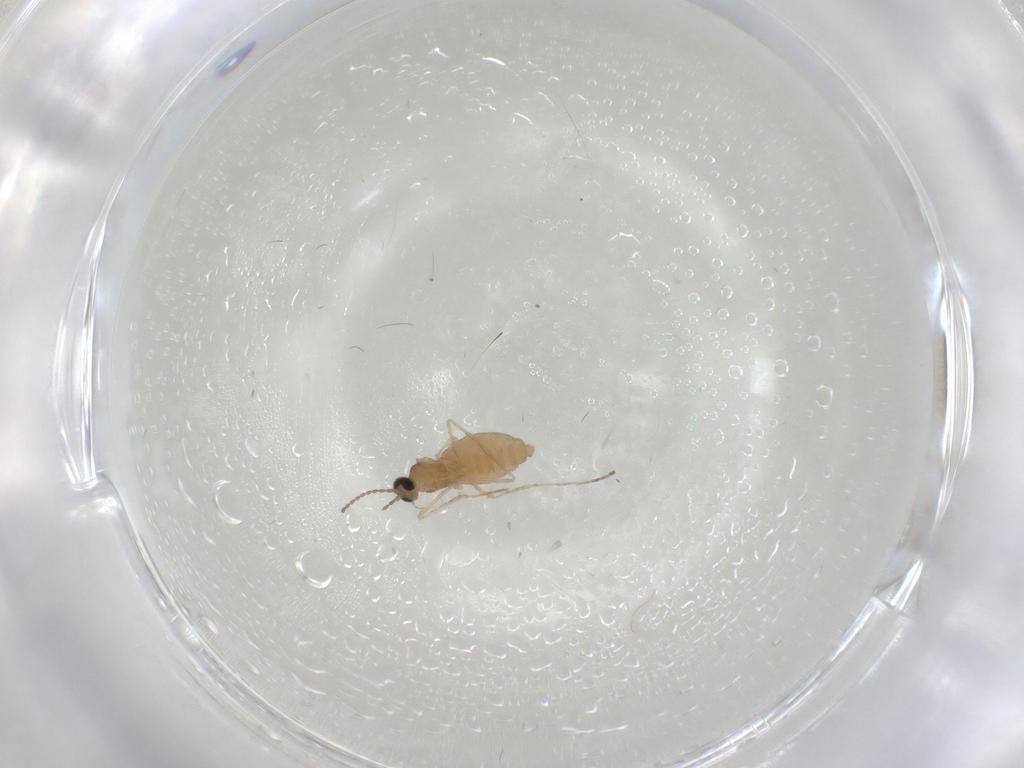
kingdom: Animalia
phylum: Arthropoda
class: Insecta
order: Diptera
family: Cecidomyiidae
